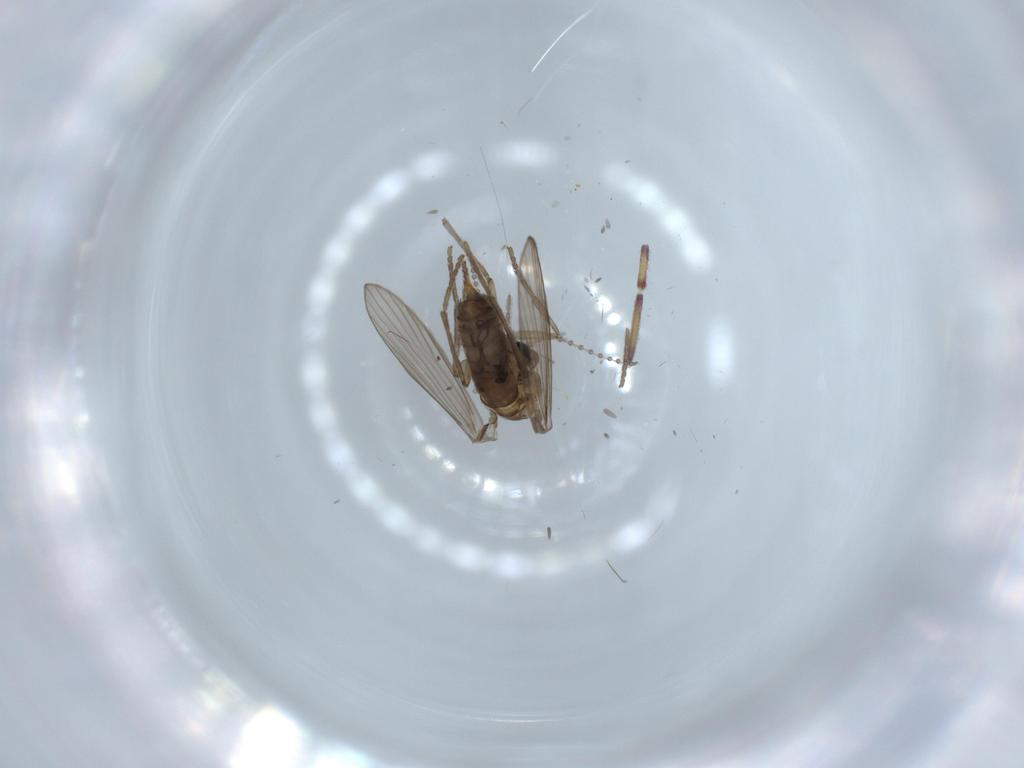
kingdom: Animalia
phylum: Arthropoda
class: Insecta
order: Diptera
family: Psychodidae
